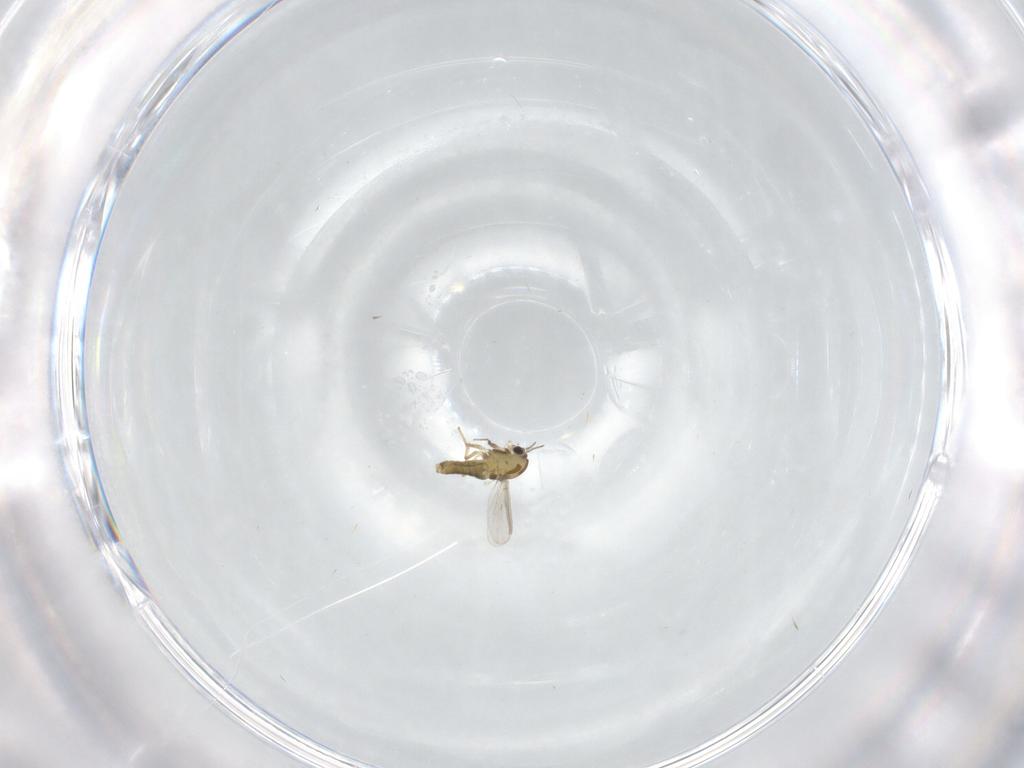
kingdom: Animalia
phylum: Arthropoda
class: Insecta
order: Diptera
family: Chironomidae
